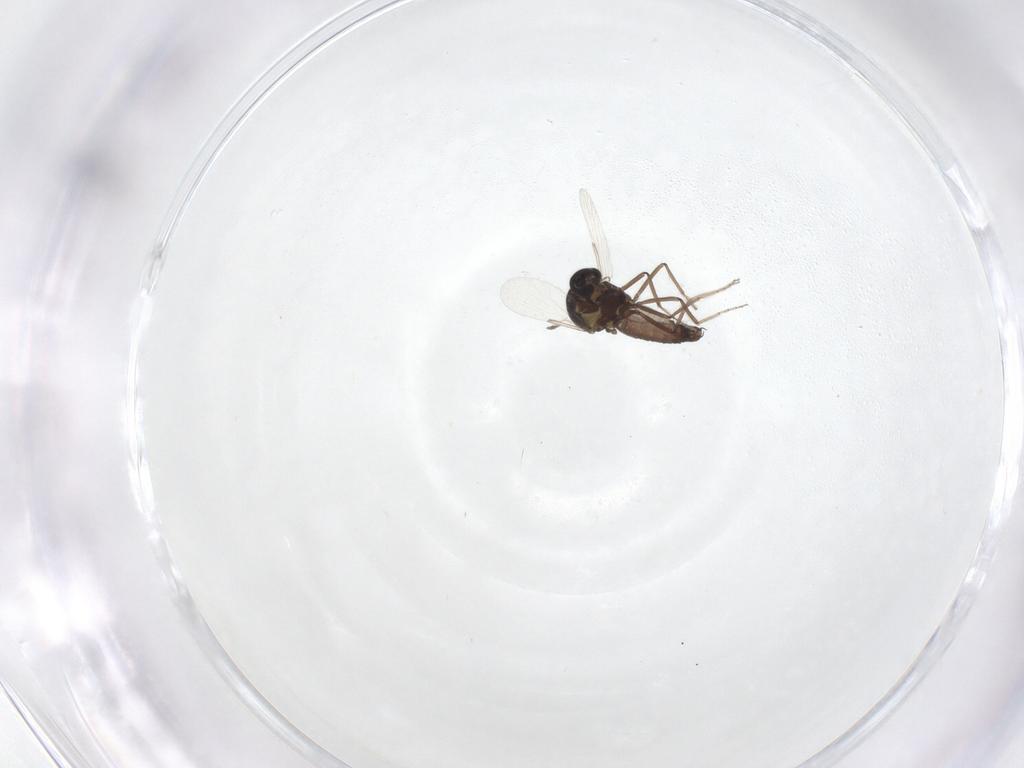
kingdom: Animalia
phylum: Arthropoda
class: Insecta
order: Diptera
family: Ceratopogonidae
